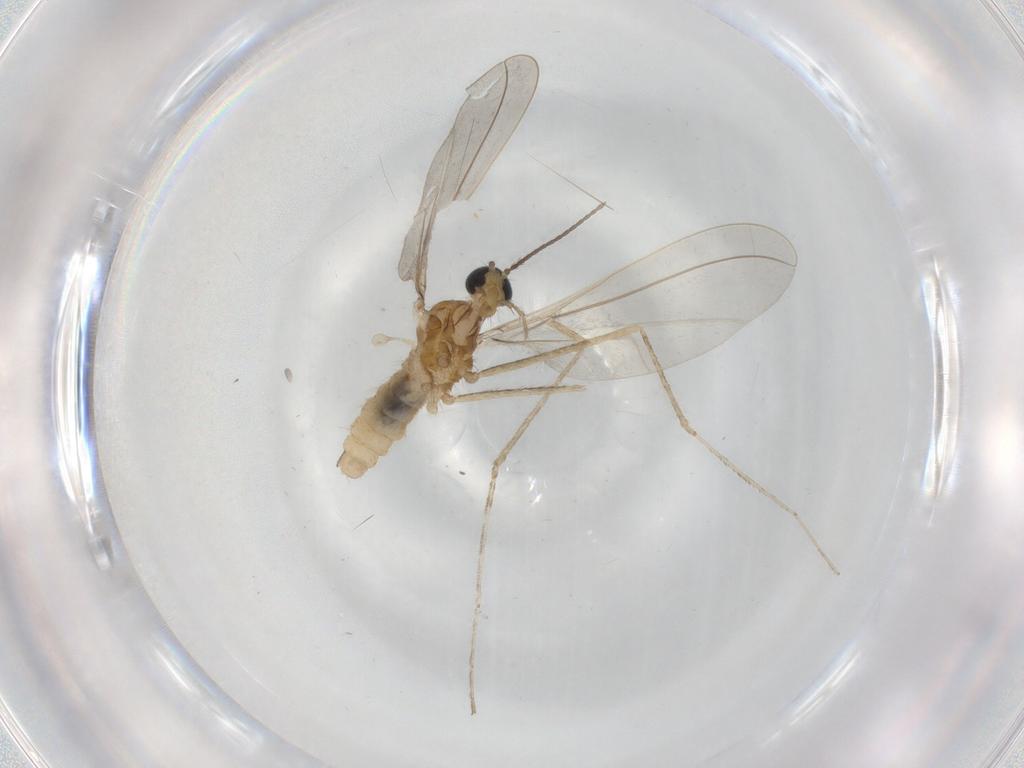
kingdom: Animalia
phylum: Arthropoda
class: Insecta
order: Diptera
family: Cecidomyiidae
